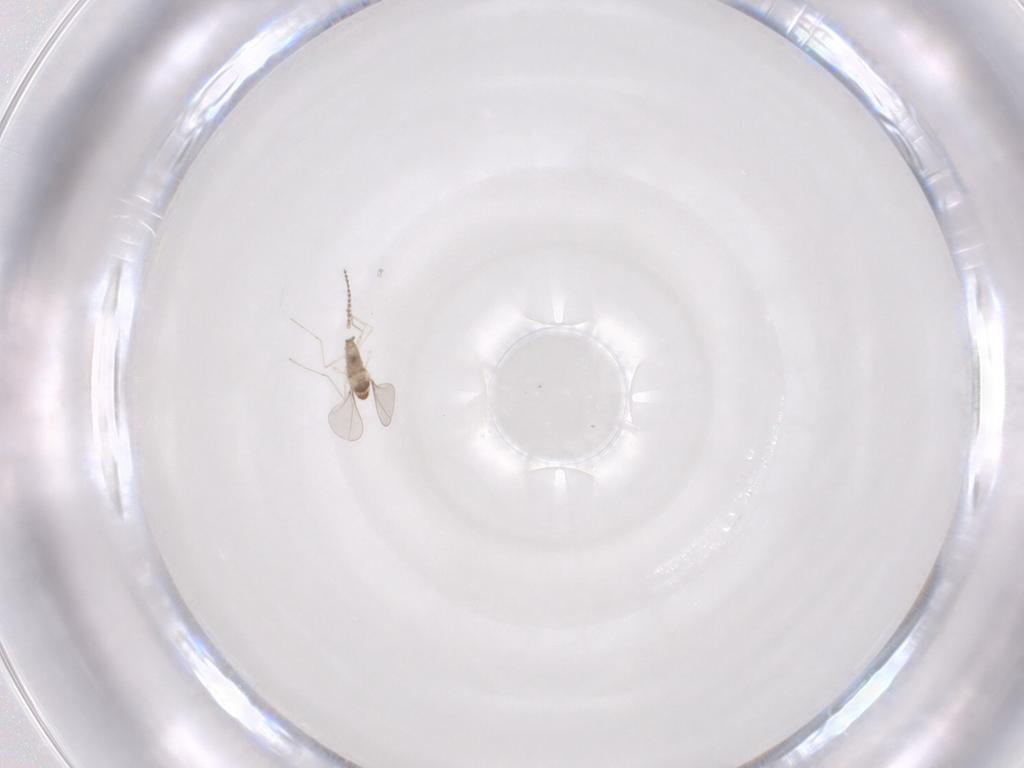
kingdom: Animalia
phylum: Arthropoda
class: Insecta
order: Diptera
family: Cecidomyiidae
